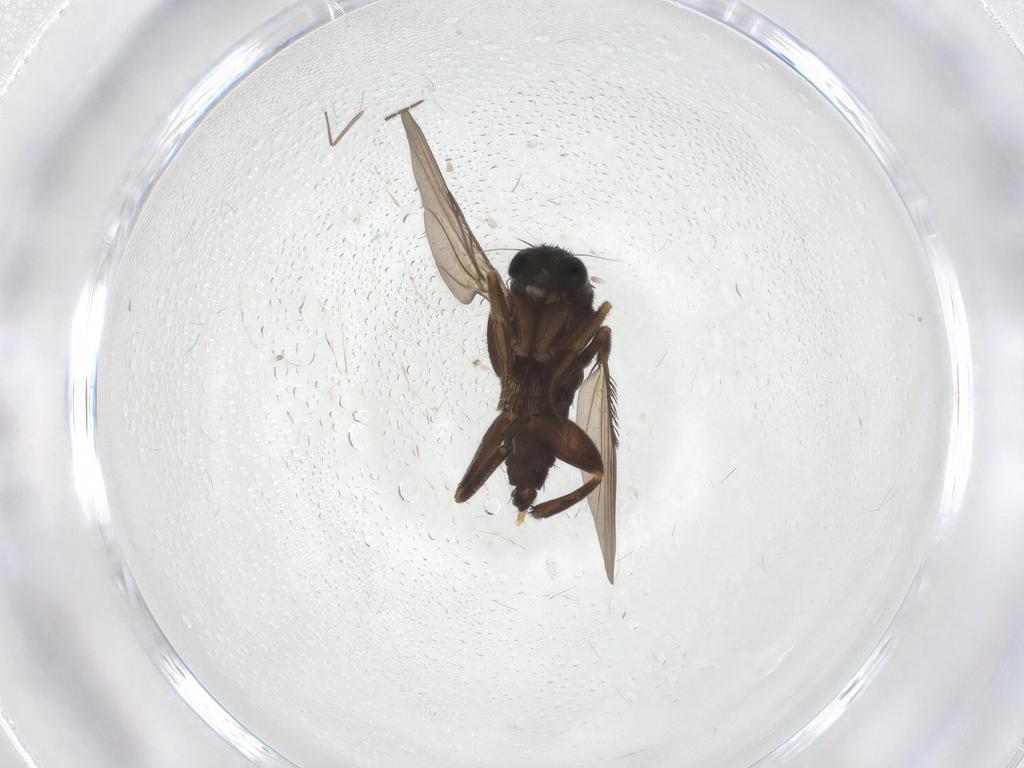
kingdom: Animalia
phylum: Arthropoda
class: Insecta
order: Diptera
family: Phoridae
